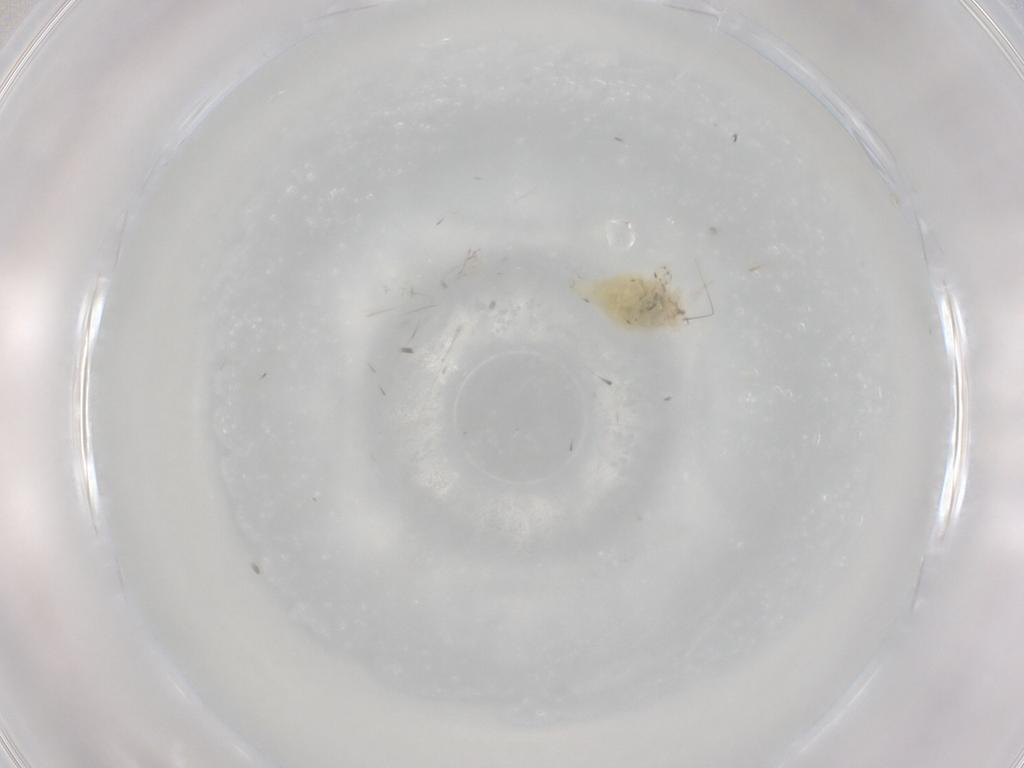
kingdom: Animalia
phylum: Arthropoda
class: Insecta
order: Neuroptera
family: Coniopterygidae
